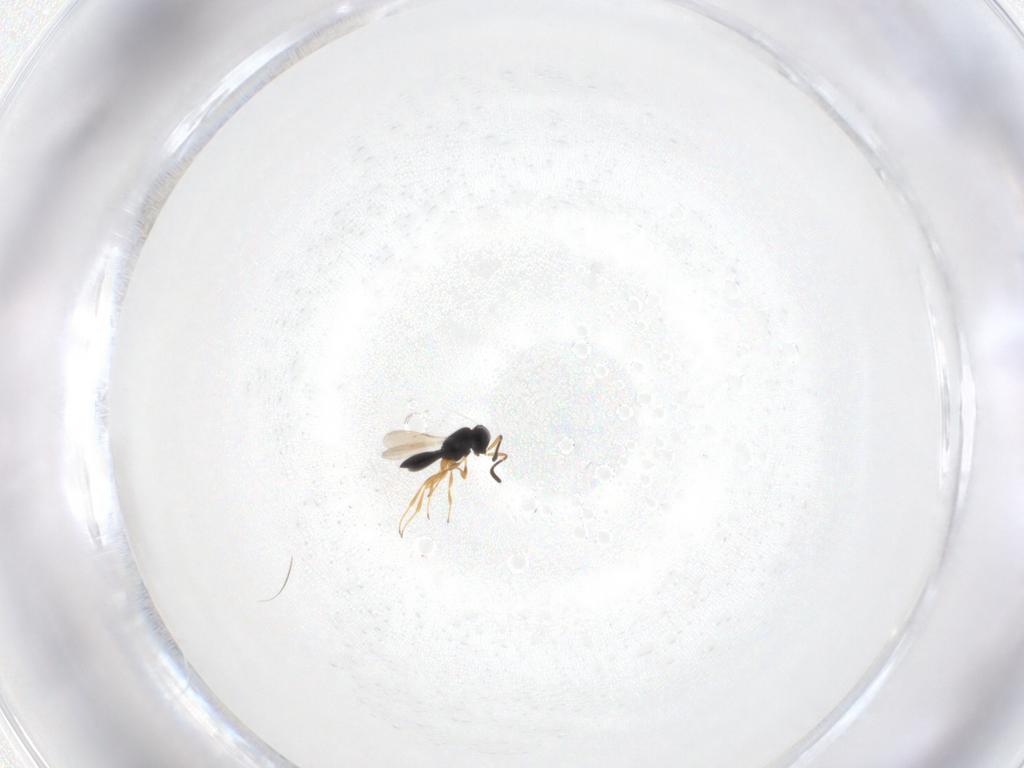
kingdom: Animalia
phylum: Arthropoda
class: Insecta
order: Hymenoptera
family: Scelionidae
